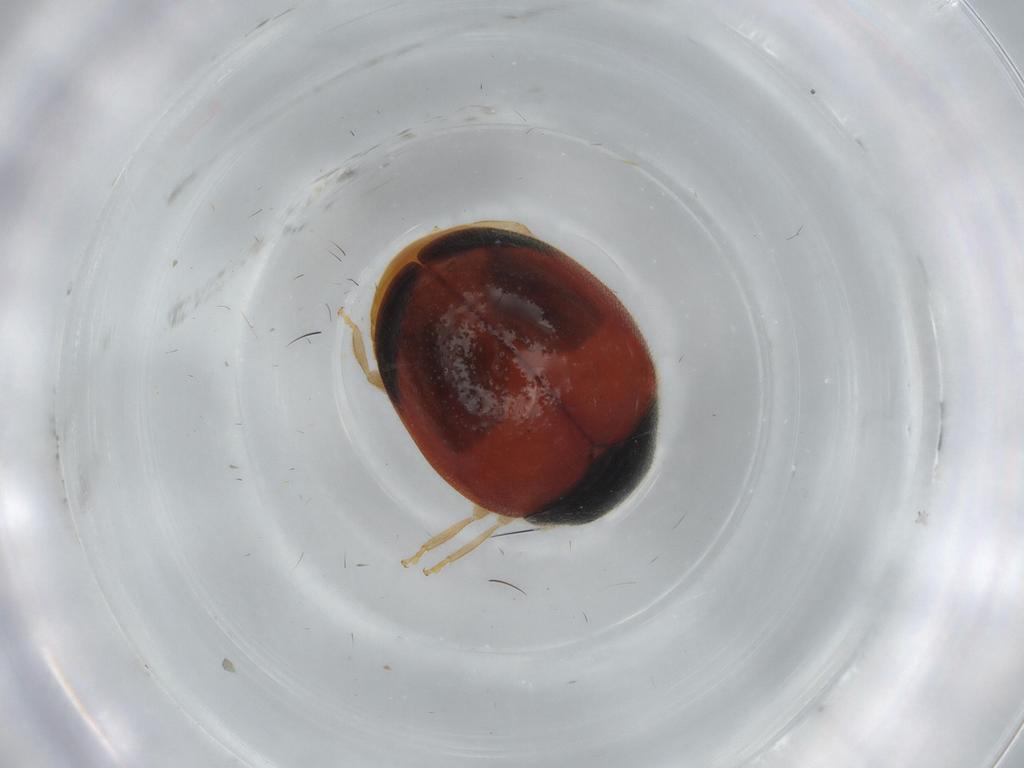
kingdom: Animalia
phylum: Arthropoda
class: Insecta
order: Coleoptera
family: Coccinellidae
